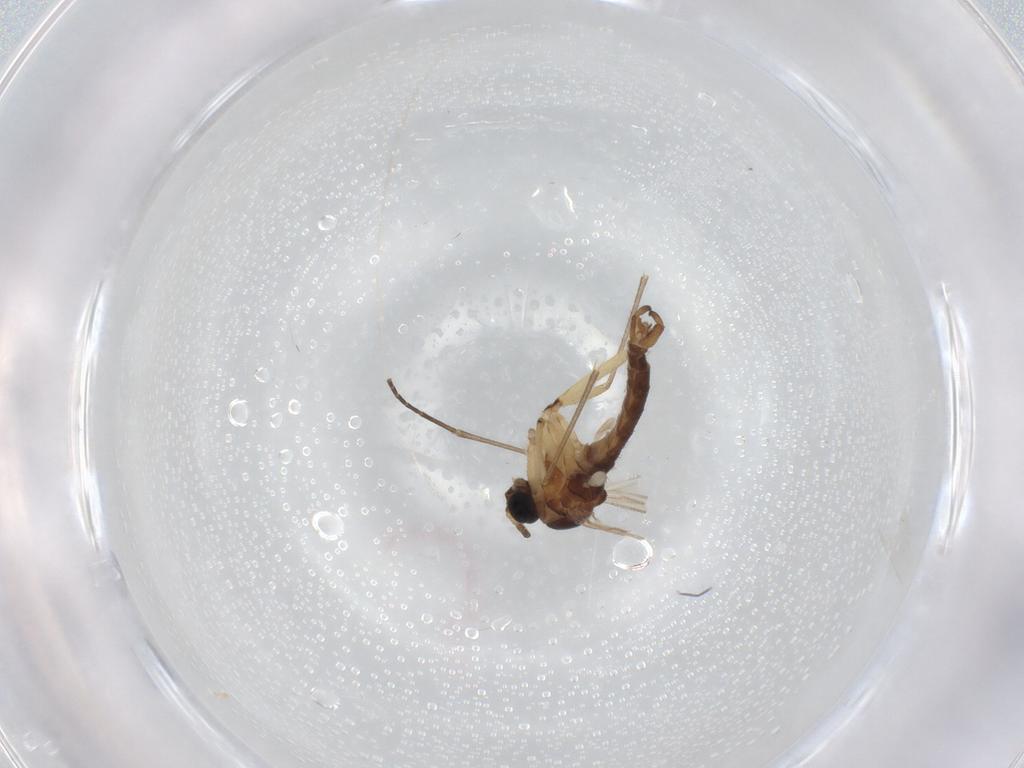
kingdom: Animalia
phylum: Arthropoda
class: Insecta
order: Diptera
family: Sciaridae
